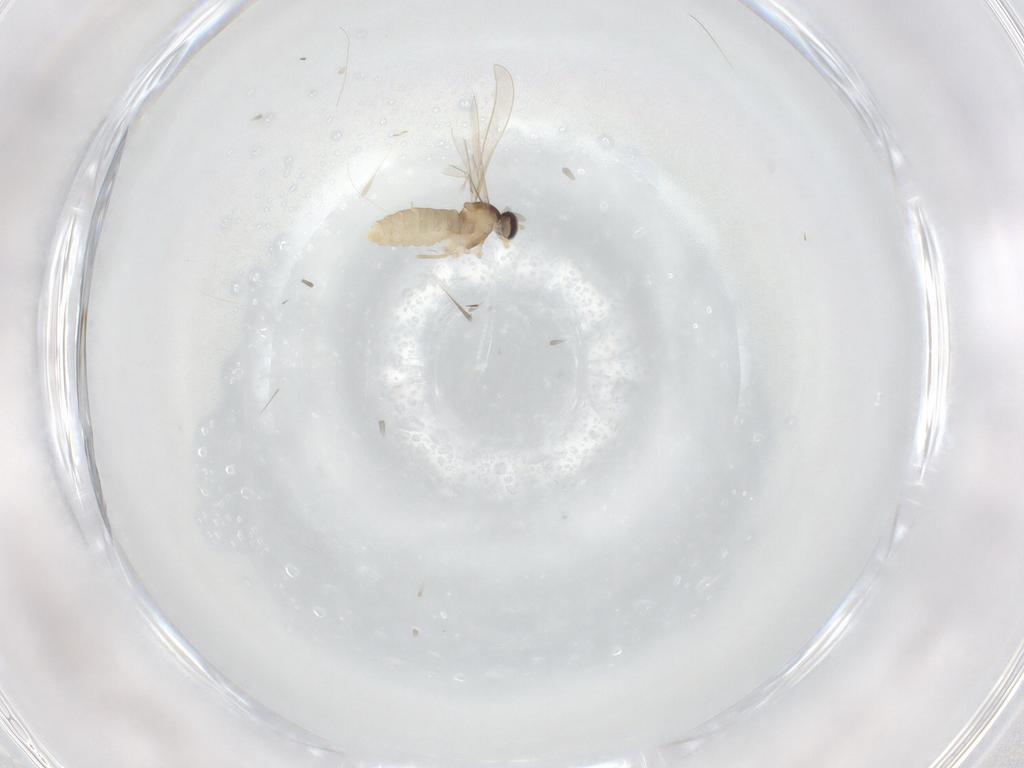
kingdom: Animalia
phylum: Arthropoda
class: Insecta
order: Diptera
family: Cecidomyiidae
